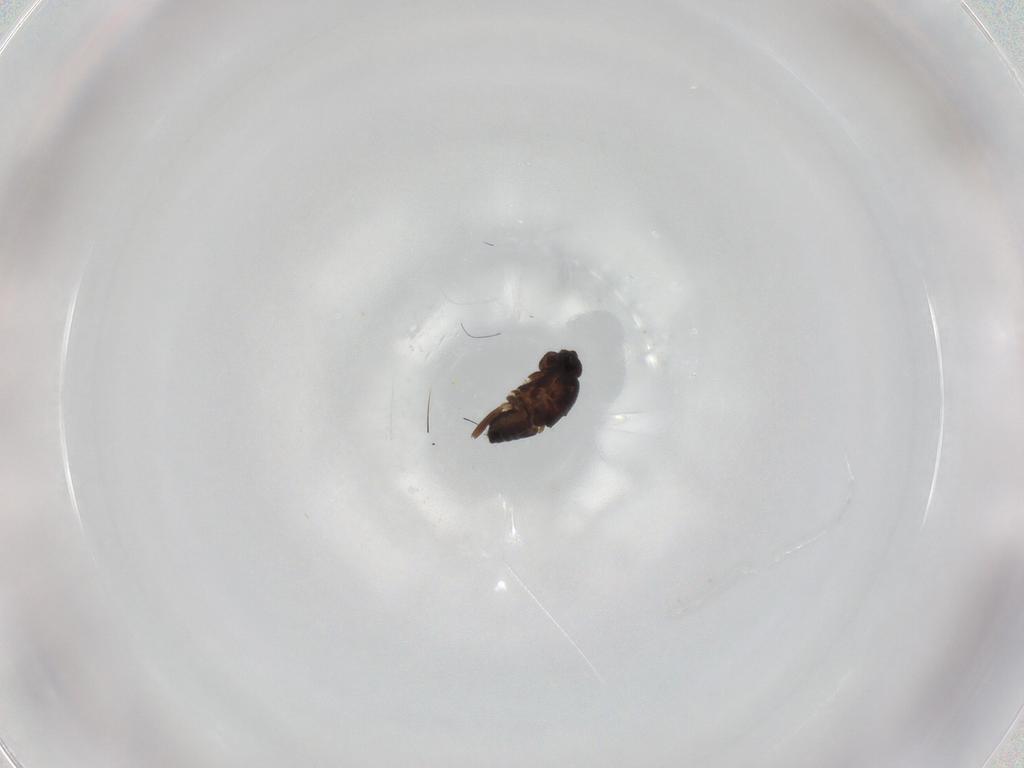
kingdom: Animalia
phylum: Arthropoda
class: Insecta
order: Diptera
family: Sphaeroceridae
